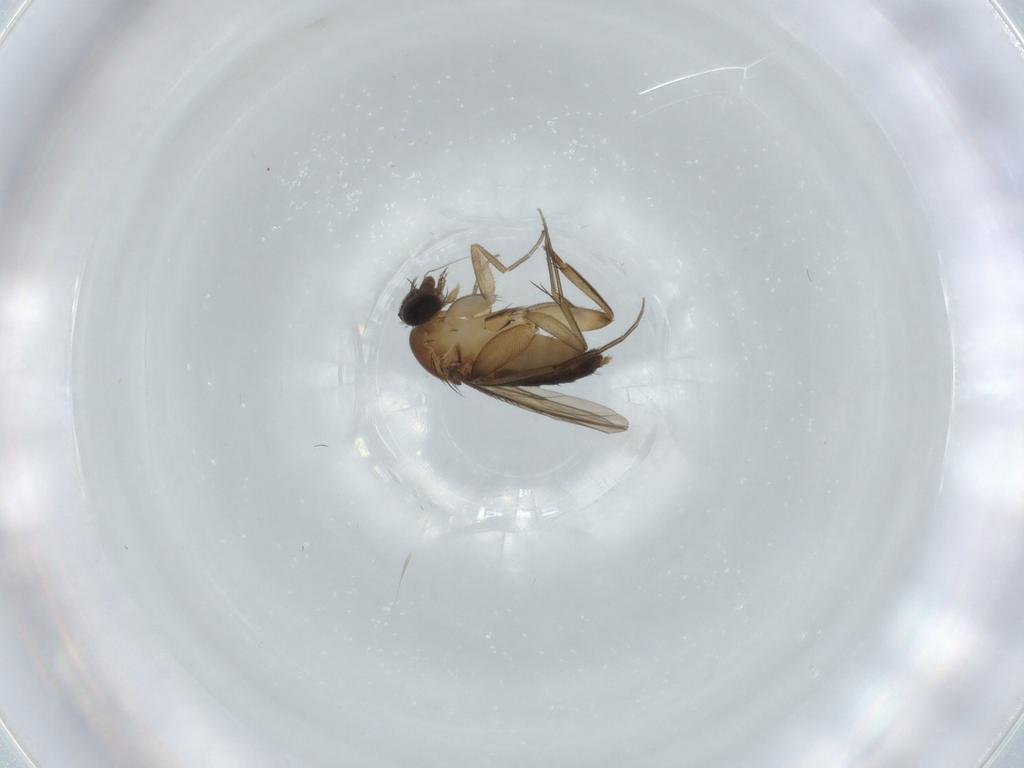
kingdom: Animalia
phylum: Arthropoda
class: Insecta
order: Diptera
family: Phoridae
